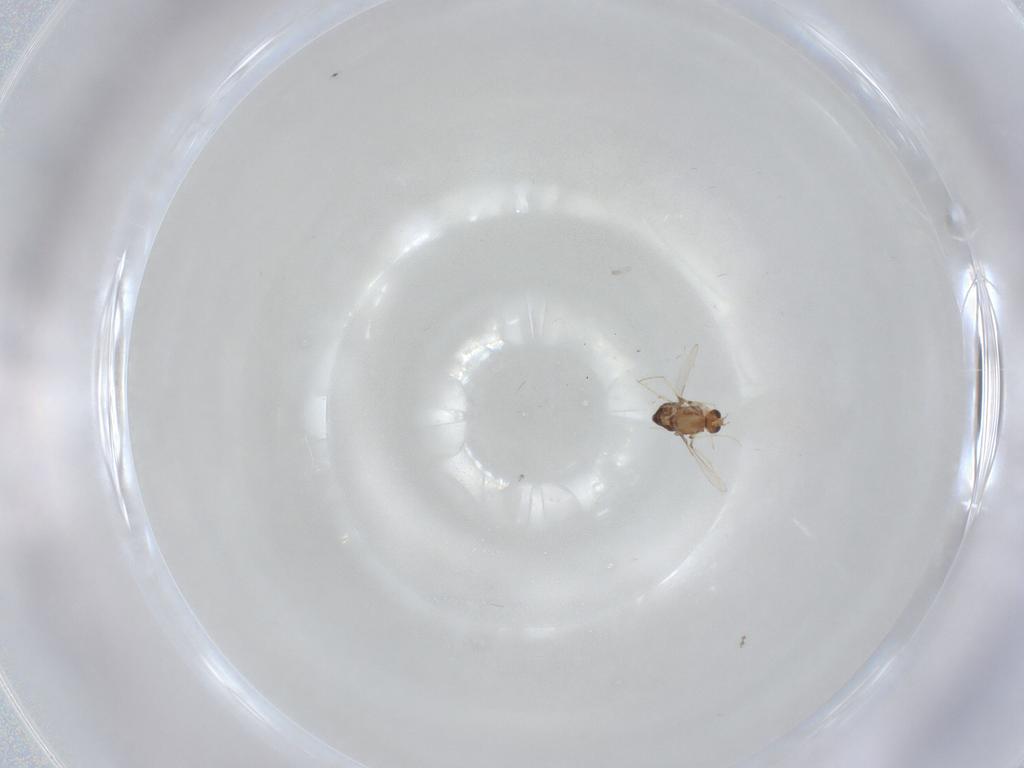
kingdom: Animalia
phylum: Arthropoda
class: Insecta
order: Diptera
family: Chironomidae
